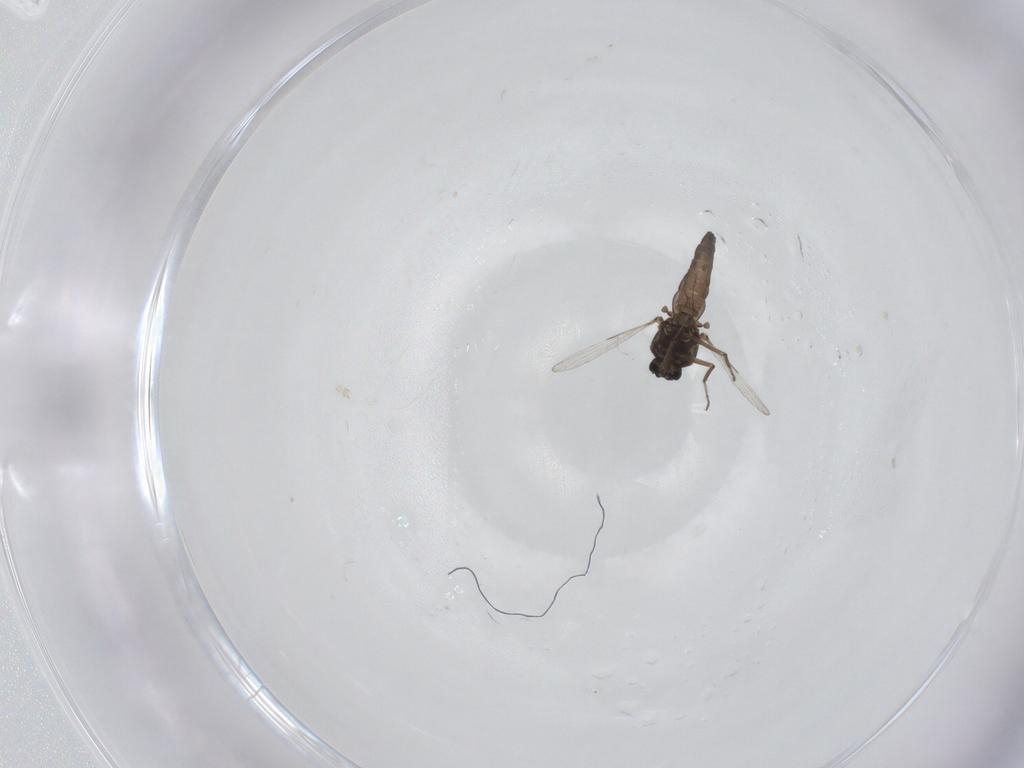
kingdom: Animalia
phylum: Arthropoda
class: Insecta
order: Diptera
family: Ceratopogonidae
